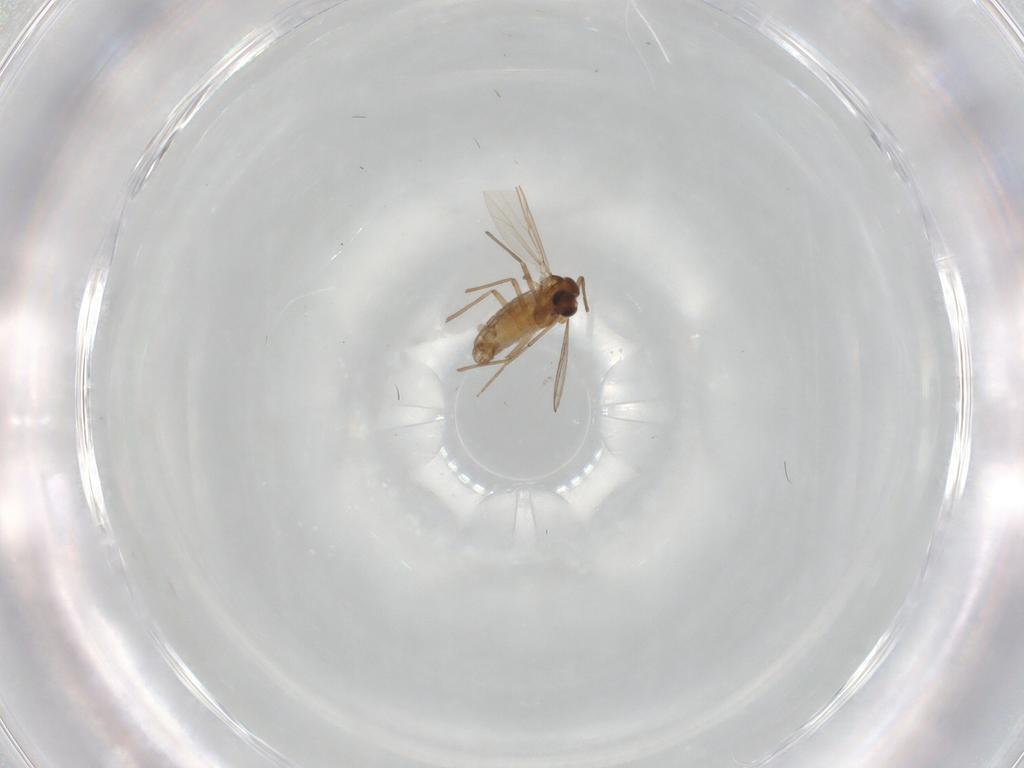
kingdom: Animalia
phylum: Arthropoda
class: Insecta
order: Diptera
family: Chironomidae
